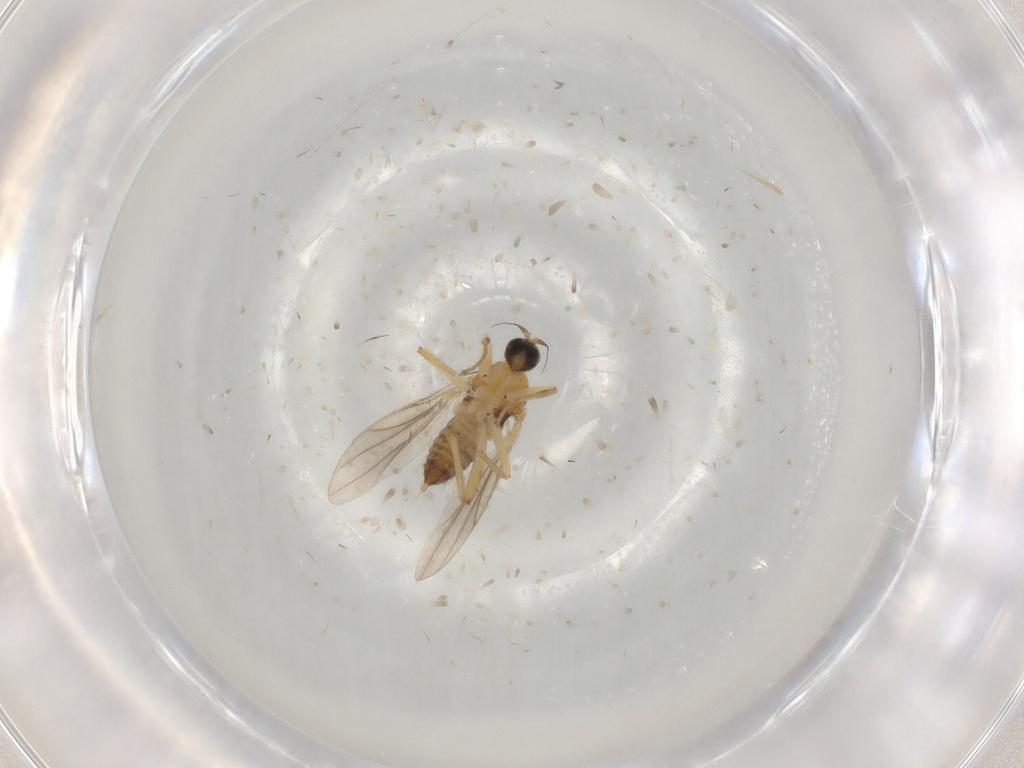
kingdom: Animalia
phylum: Arthropoda
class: Insecta
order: Diptera
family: Hybotidae
